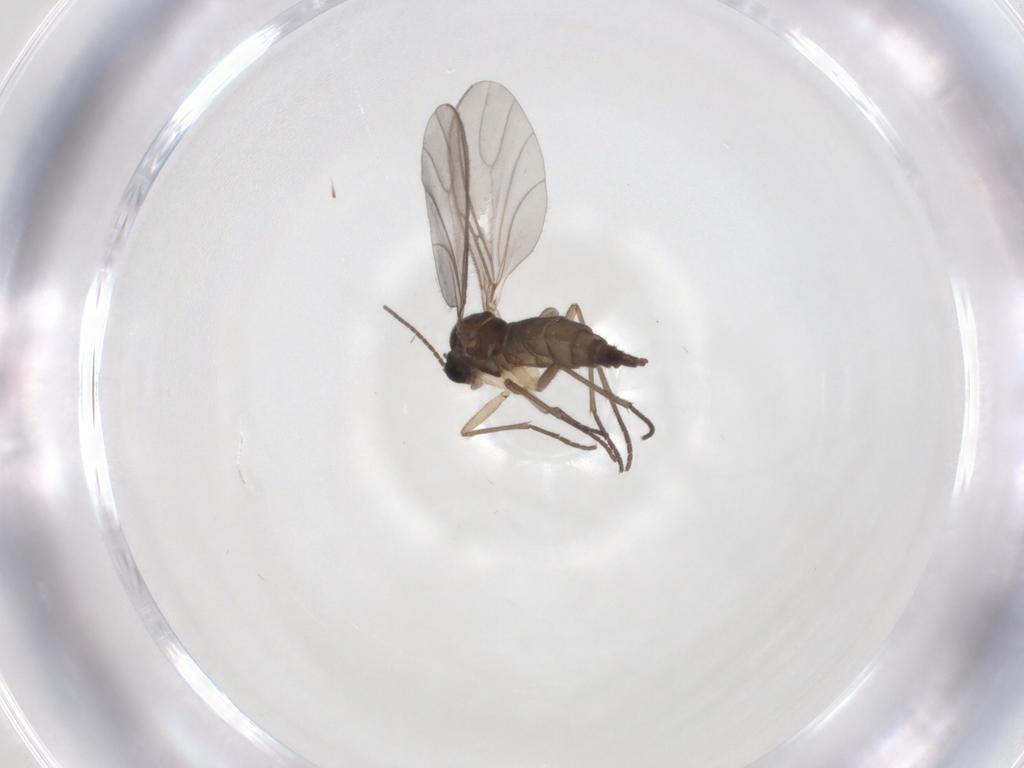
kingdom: Animalia
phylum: Arthropoda
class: Insecta
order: Diptera
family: Sciaridae
